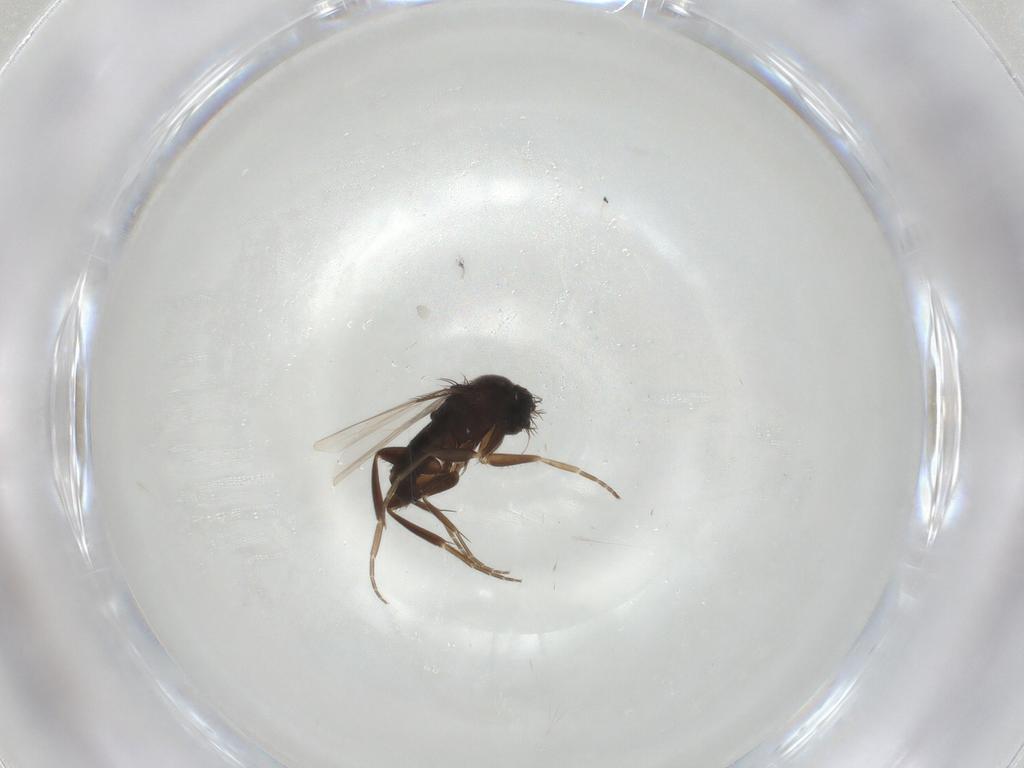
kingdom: Animalia
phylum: Arthropoda
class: Insecta
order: Diptera
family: Phoridae
